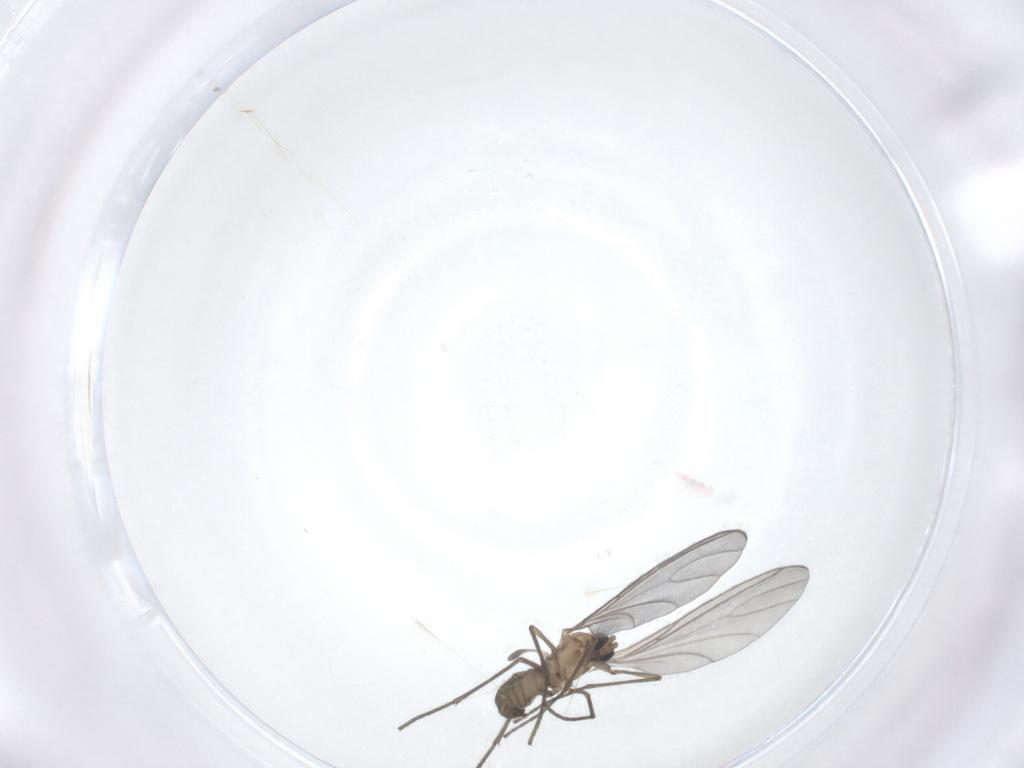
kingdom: Animalia
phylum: Arthropoda
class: Insecta
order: Diptera
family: Sciaridae
